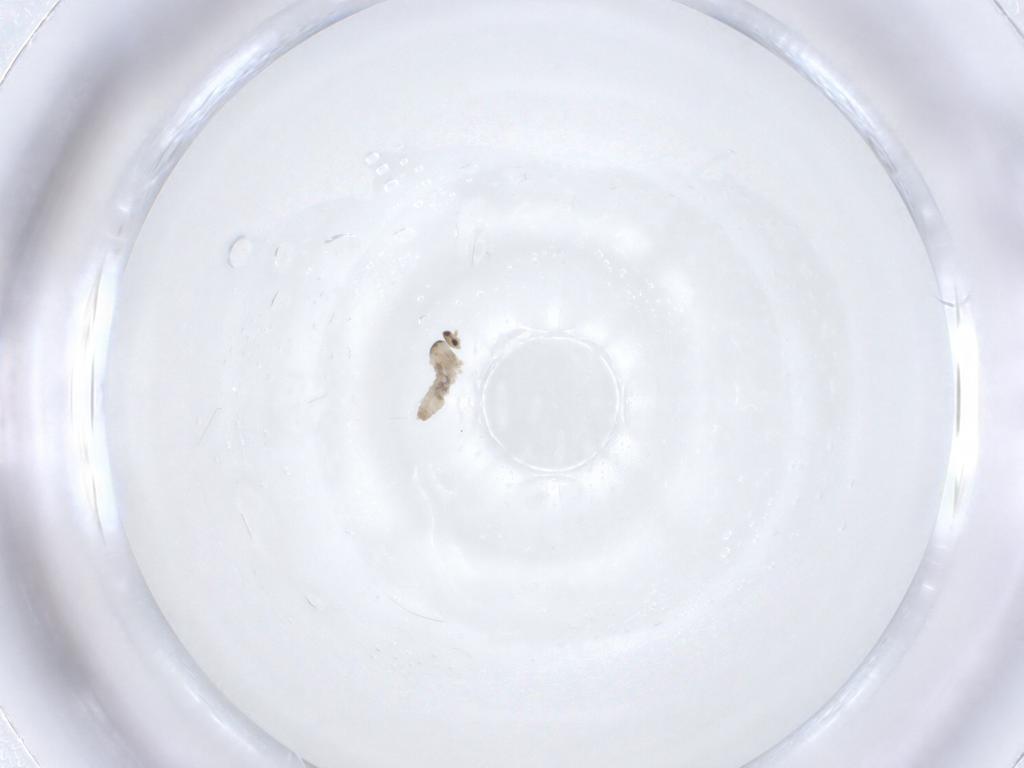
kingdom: Animalia
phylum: Arthropoda
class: Insecta
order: Diptera
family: Cecidomyiidae
